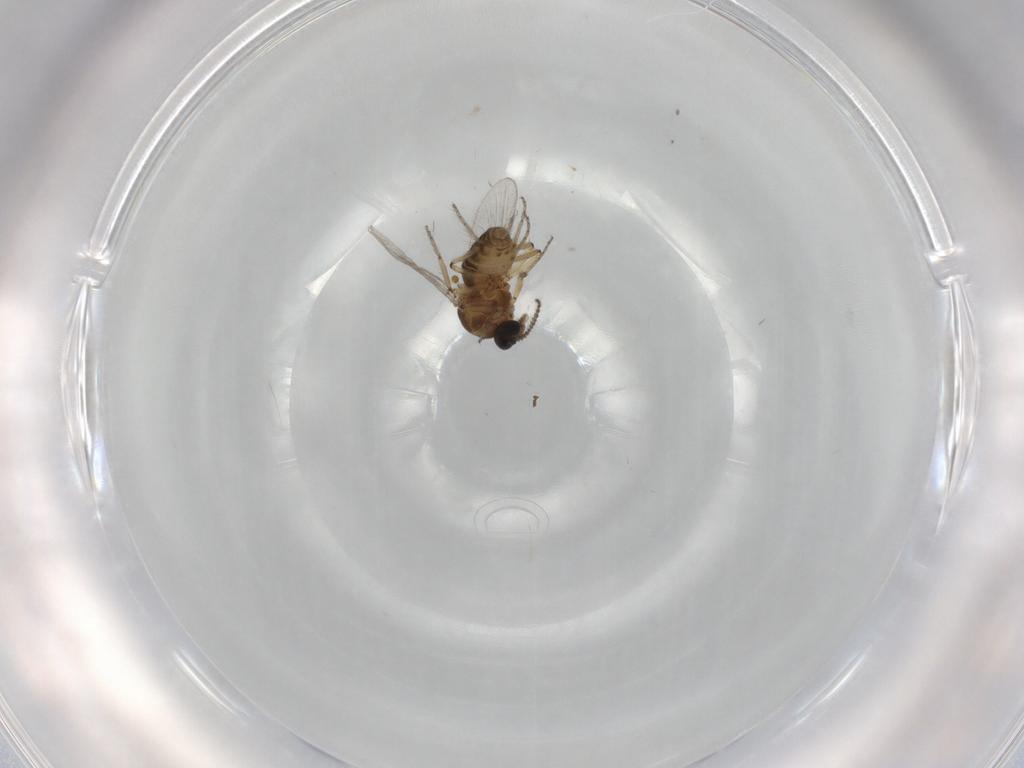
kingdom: Animalia
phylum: Arthropoda
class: Insecta
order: Diptera
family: Ceratopogonidae
